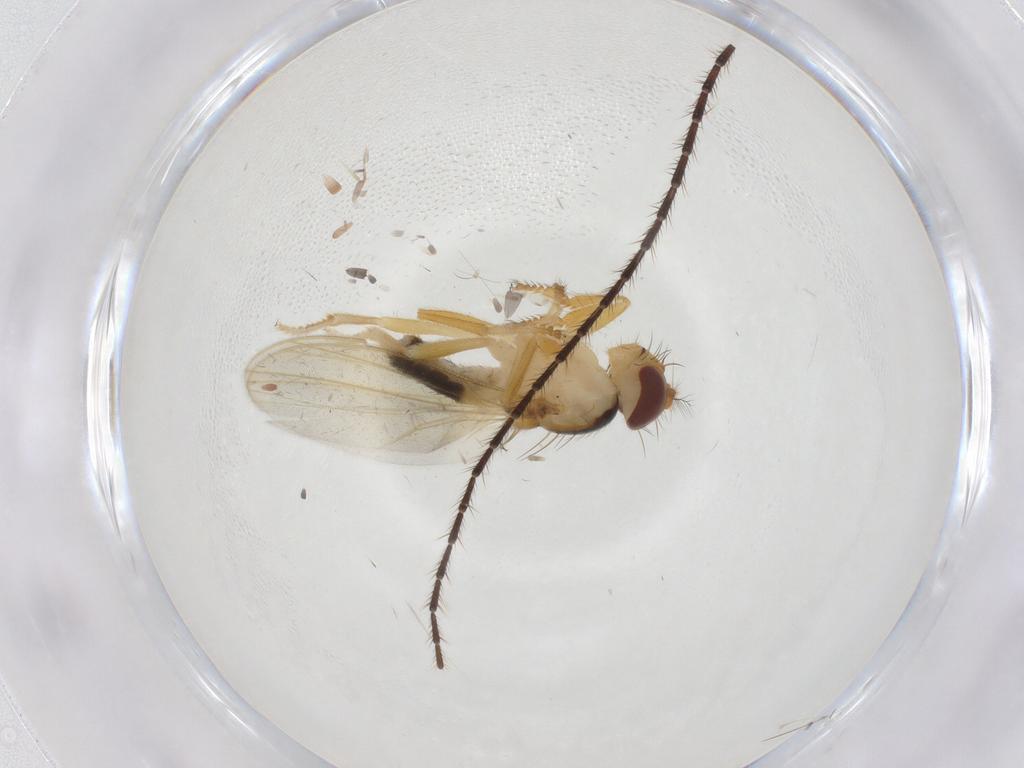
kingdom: Animalia
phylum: Arthropoda
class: Insecta
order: Diptera
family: Periscelididae
